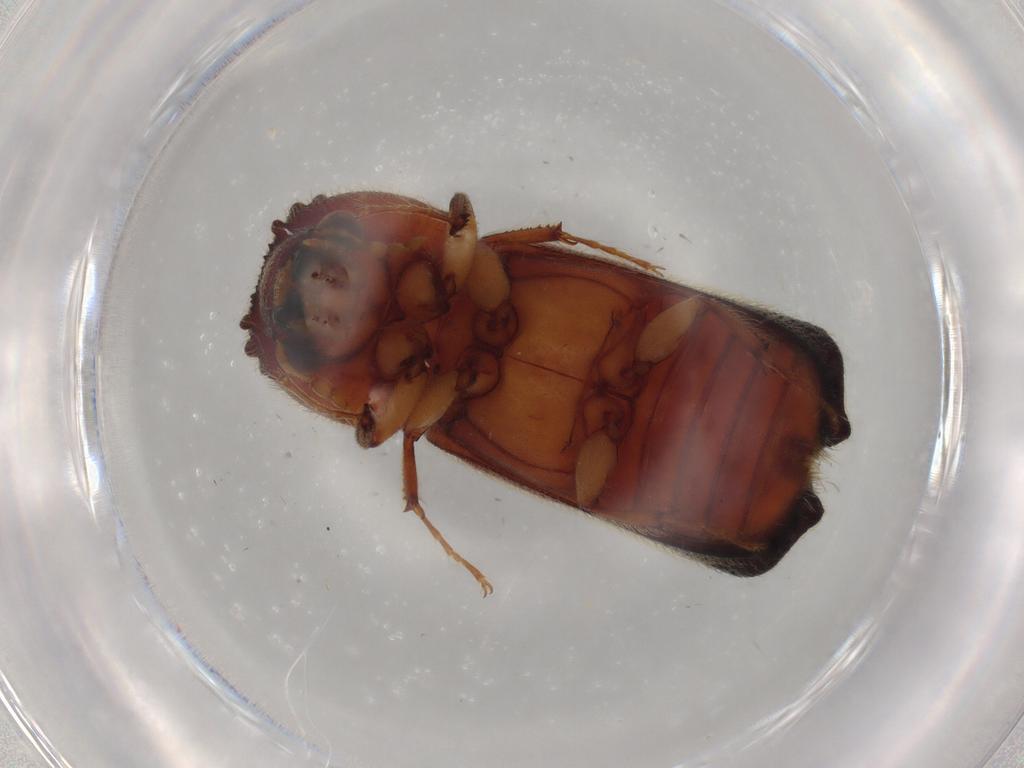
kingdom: Animalia
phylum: Arthropoda
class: Insecta
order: Coleoptera
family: Bostrichidae
